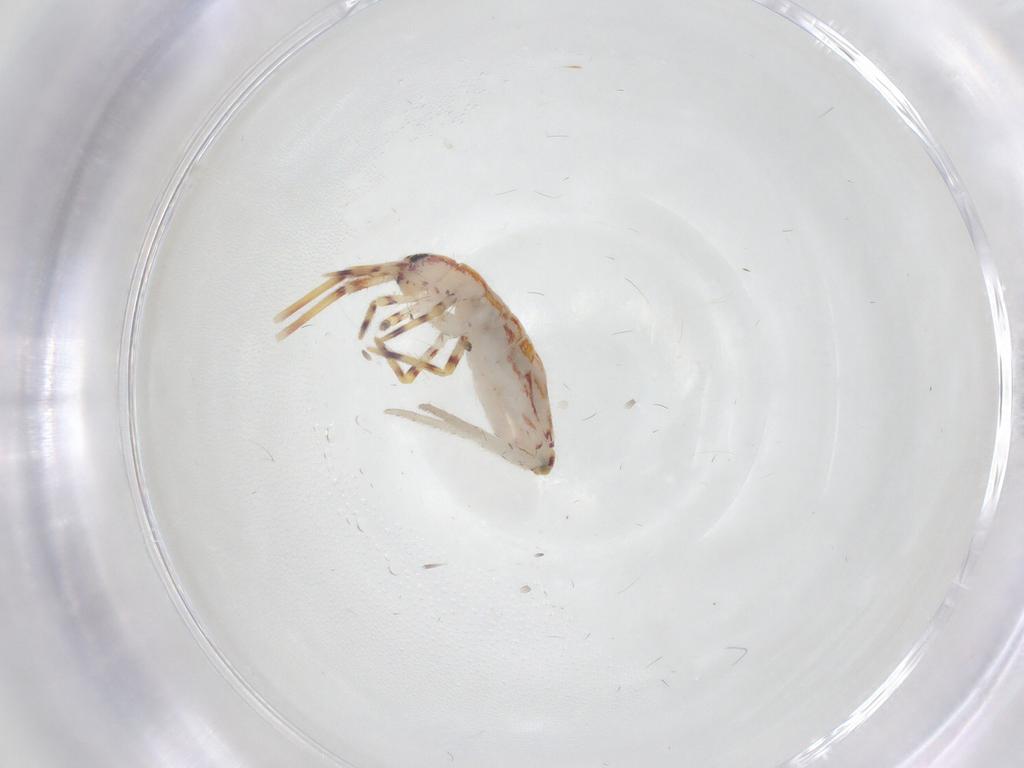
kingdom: Animalia
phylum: Arthropoda
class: Collembola
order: Entomobryomorpha
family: Entomobryidae
